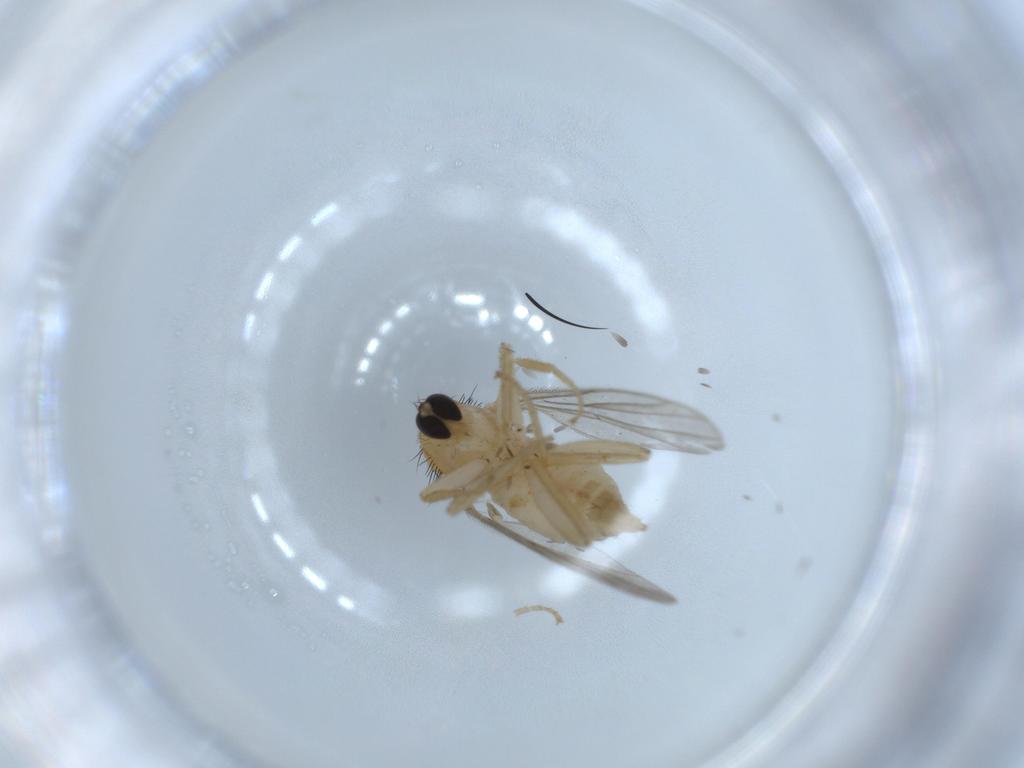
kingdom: Animalia
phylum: Arthropoda
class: Insecta
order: Diptera
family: Hybotidae
